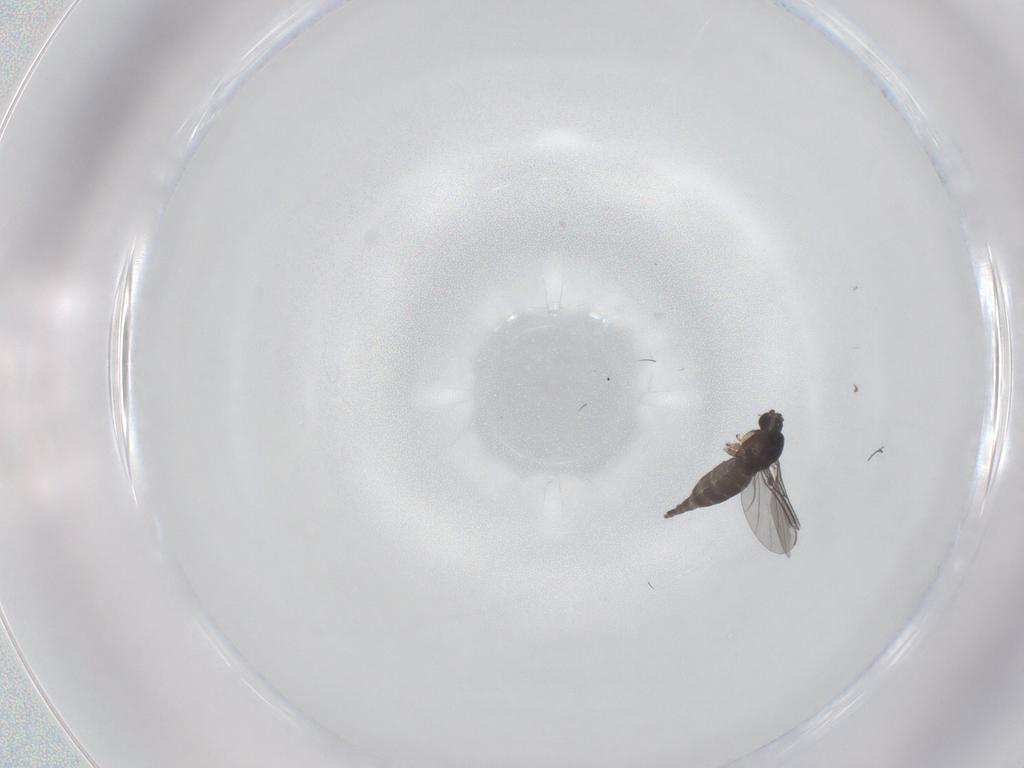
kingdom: Animalia
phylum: Arthropoda
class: Insecta
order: Diptera
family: Sciaridae
